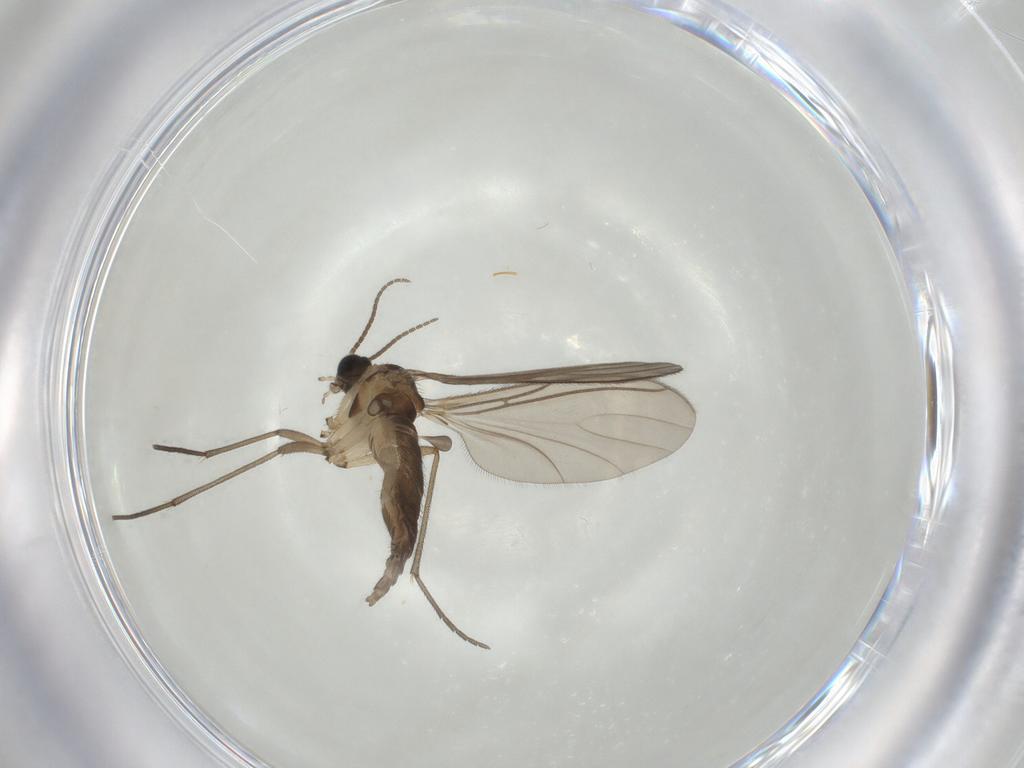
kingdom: Animalia
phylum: Arthropoda
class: Insecta
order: Diptera
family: Sciaridae
